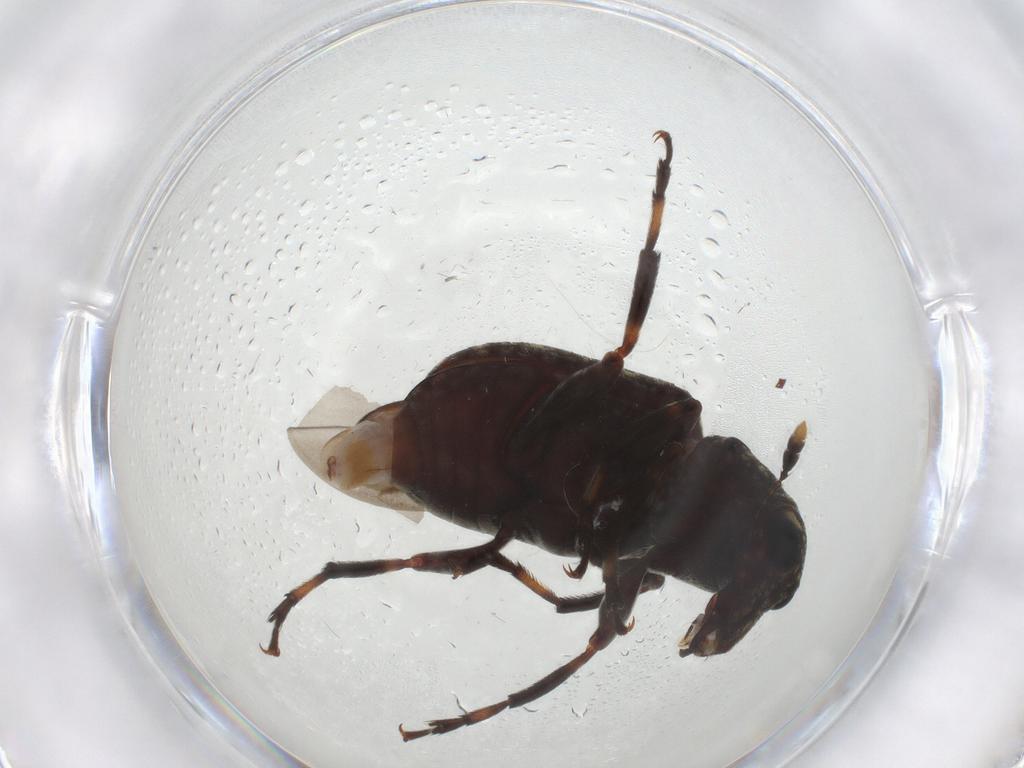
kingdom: Animalia
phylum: Arthropoda
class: Insecta
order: Coleoptera
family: Anthribidae
